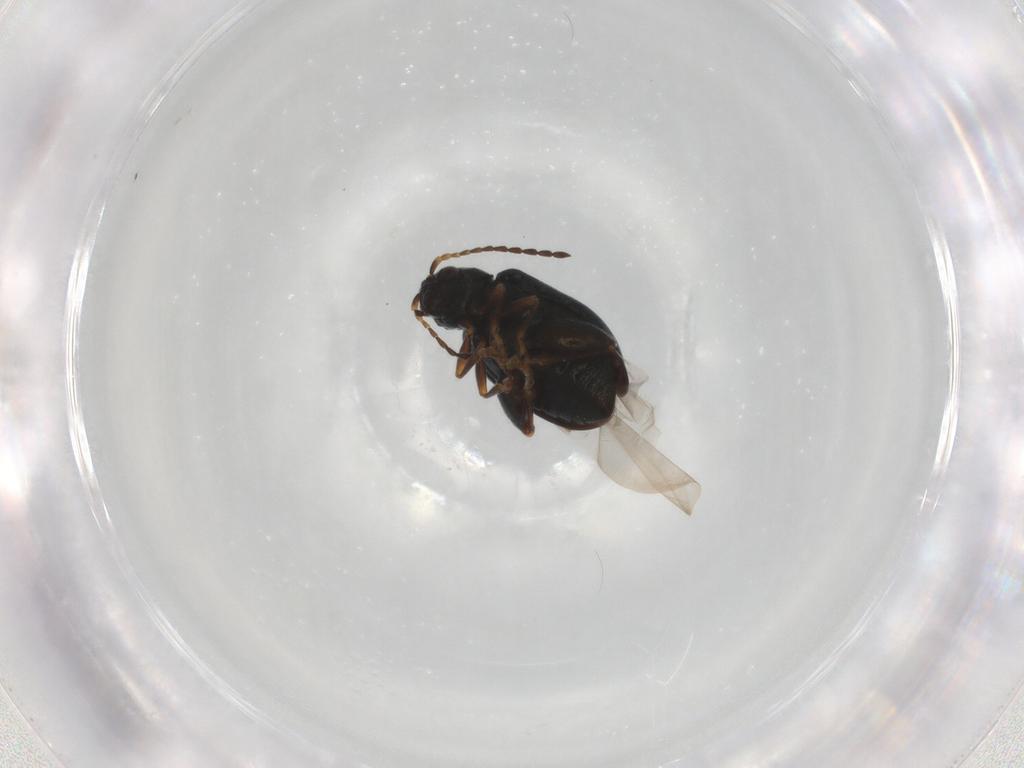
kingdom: Animalia
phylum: Arthropoda
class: Insecta
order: Coleoptera
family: Chrysomelidae
